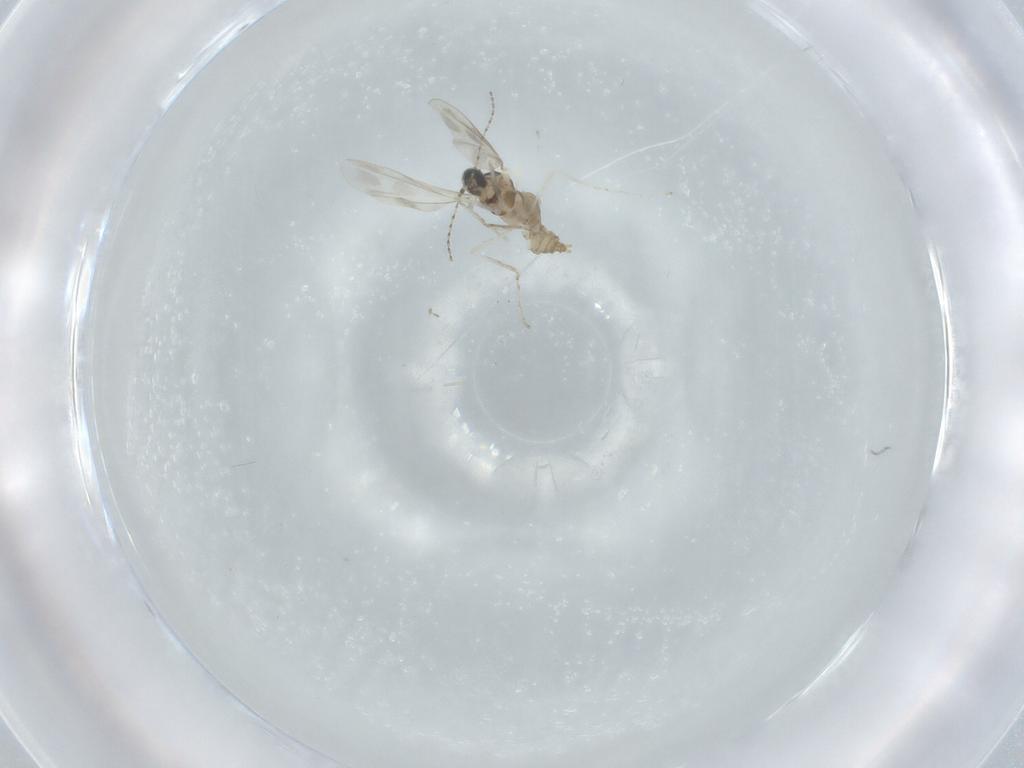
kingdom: Animalia
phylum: Arthropoda
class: Insecta
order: Diptera
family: Cecidomyiidae
